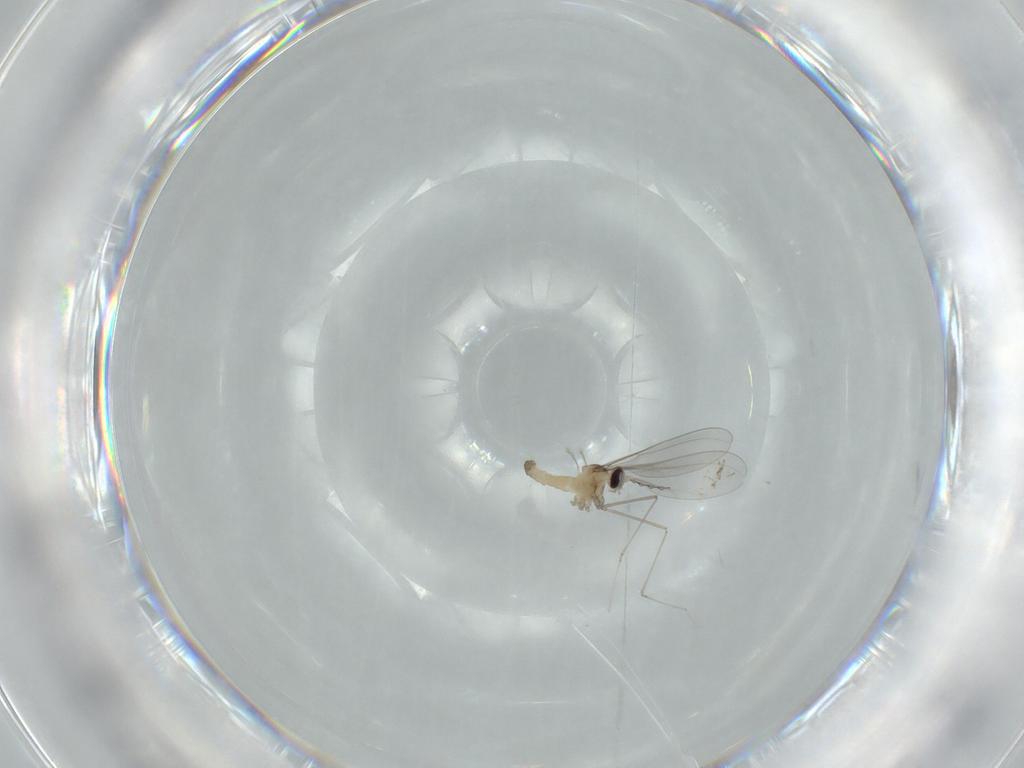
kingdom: Animalia
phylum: Arthropoda
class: Insecta
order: Diptera
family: Cecidomyiidae
